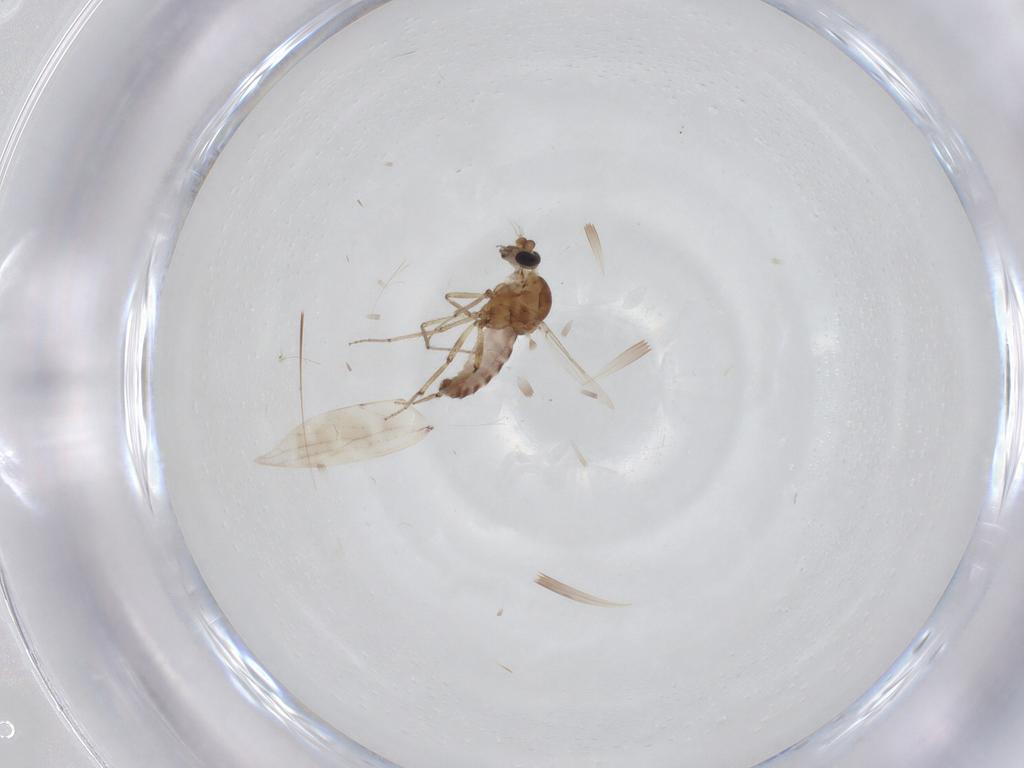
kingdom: Animalia
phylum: Arthropoda
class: Insecta
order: Diptera
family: Ceratopogonidae
